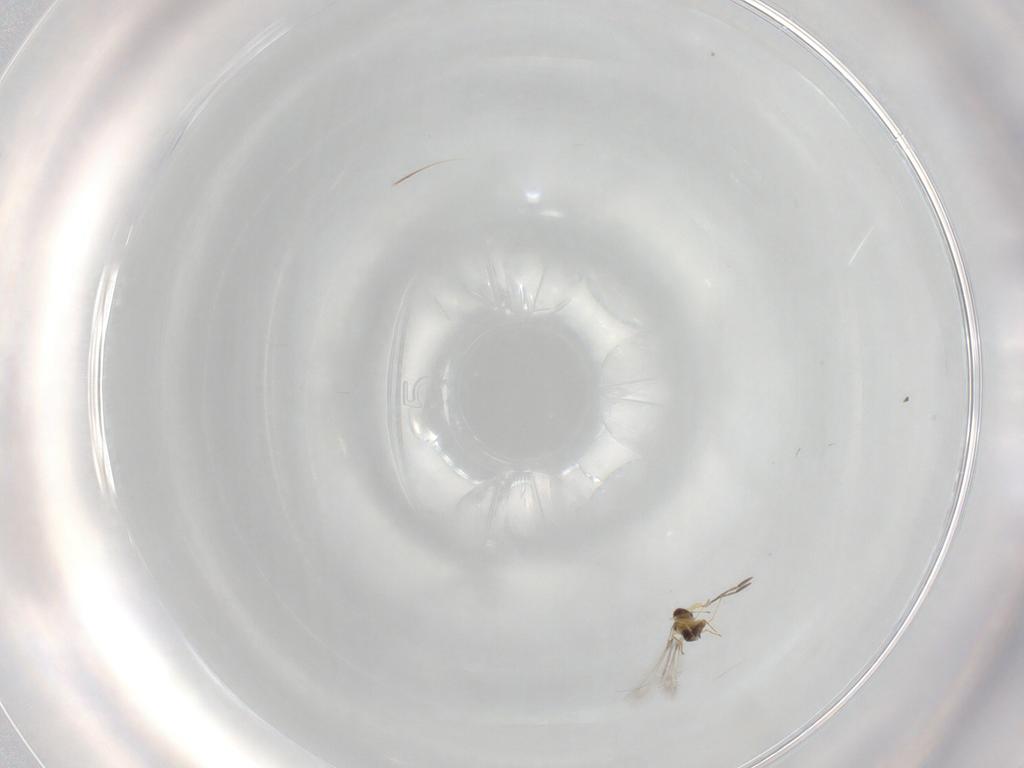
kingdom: Animalia
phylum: Arthropoda
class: Insecta
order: Hymenoptera
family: Mymaridae
